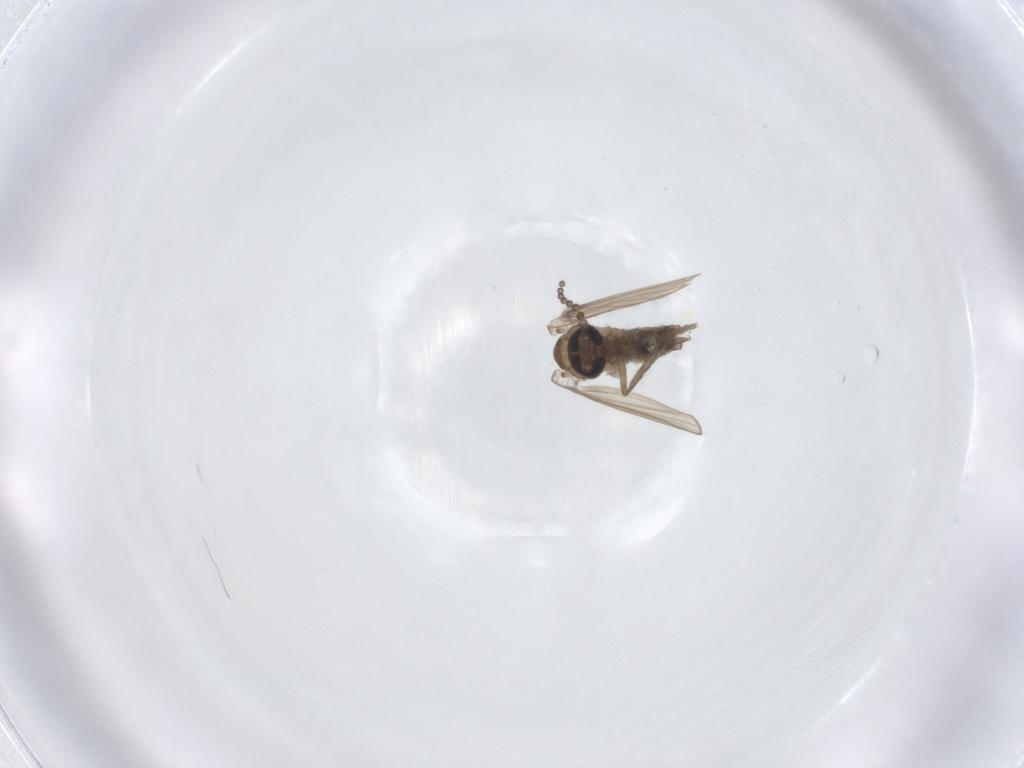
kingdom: Animalia
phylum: Arthropoda
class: Insecta
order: Diptera
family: Psychodidae
